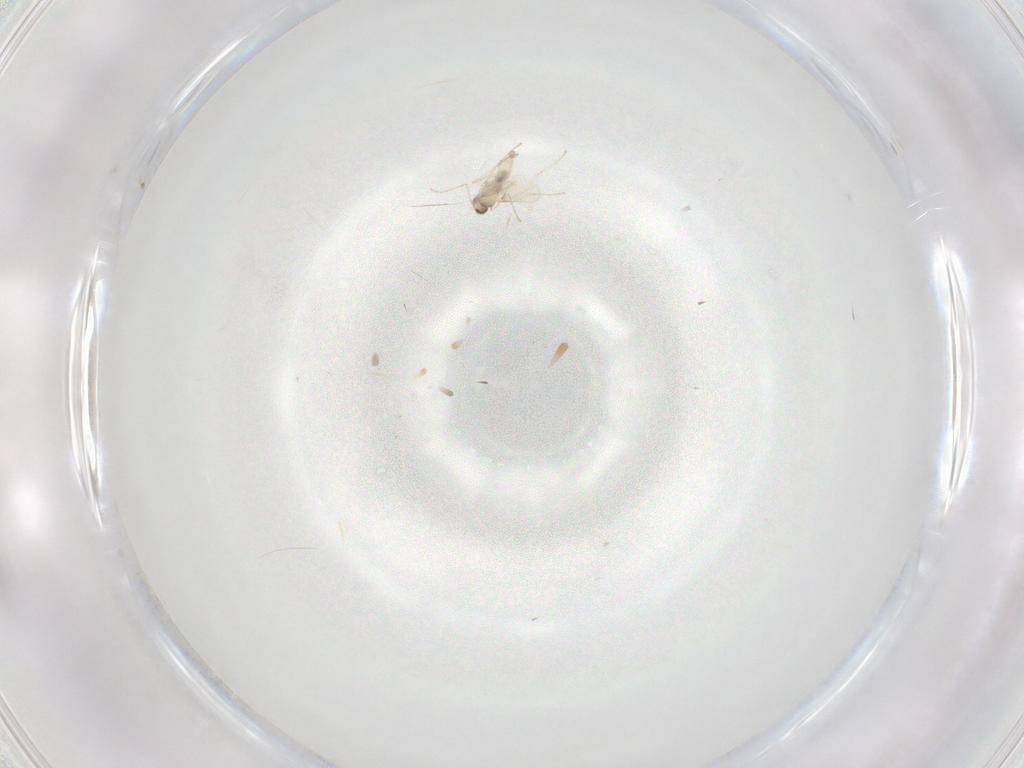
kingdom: Animalia
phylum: Arthropoda
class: Insecta
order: Diptera
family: Cecidomyiidae
